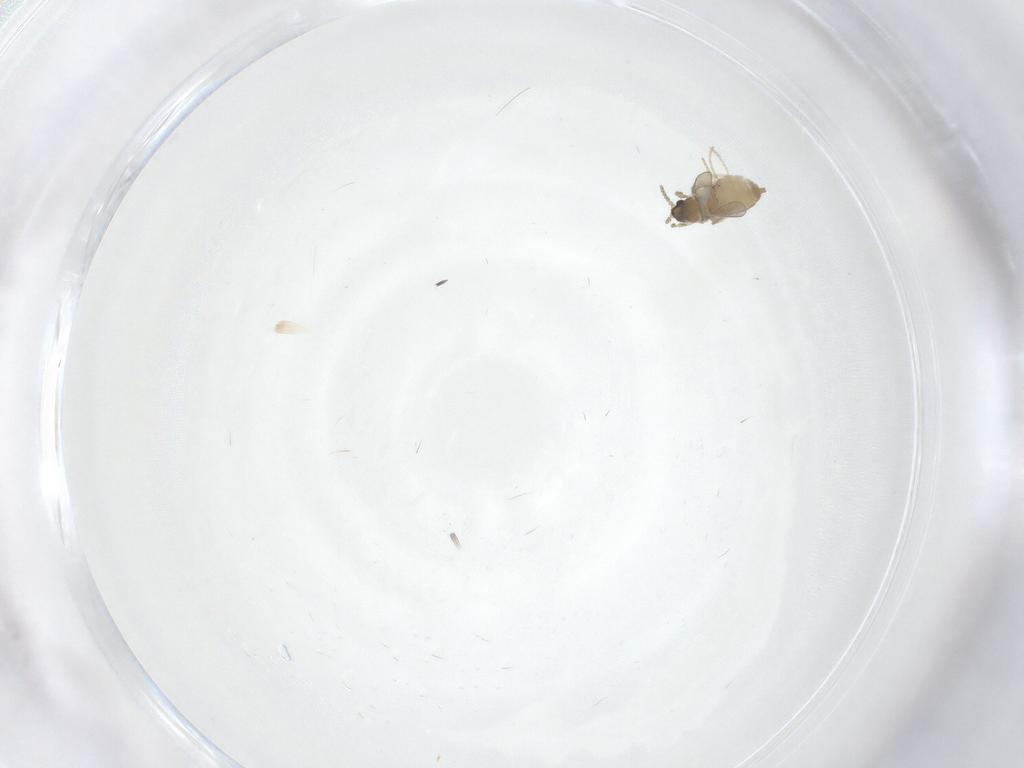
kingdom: Animalia
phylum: Arthropoda
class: Insecta
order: Diptera
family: Cecidomyiidae
